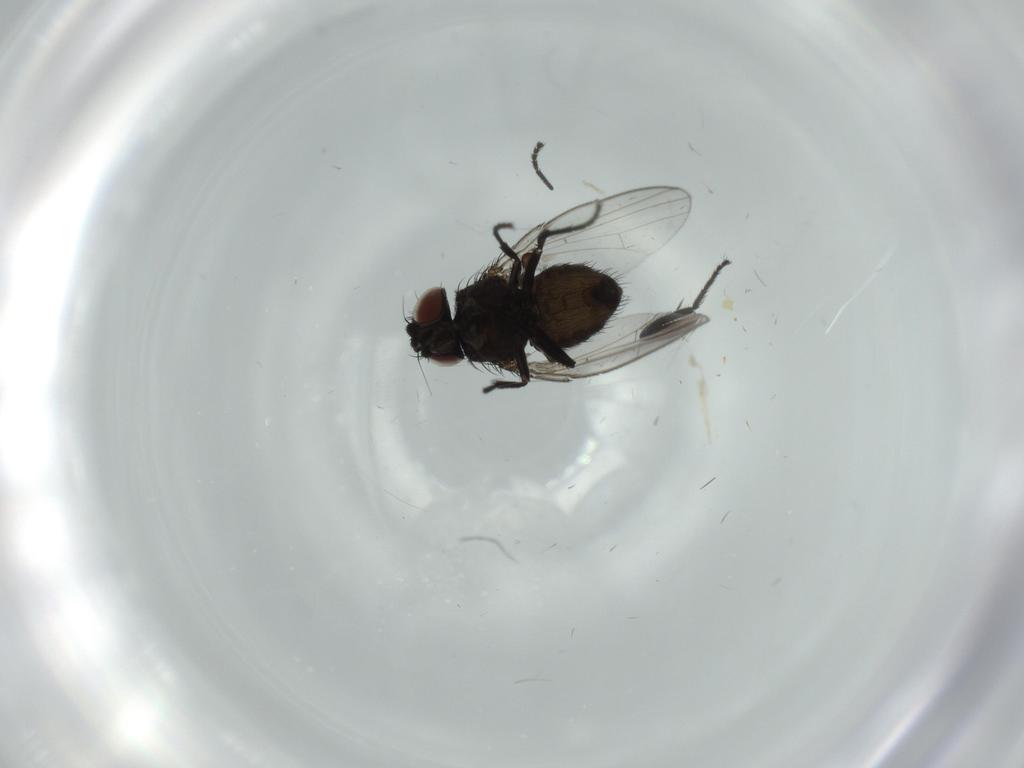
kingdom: Animalia
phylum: Arthropoda
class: Insecta
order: Diptera
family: Milichiidae
